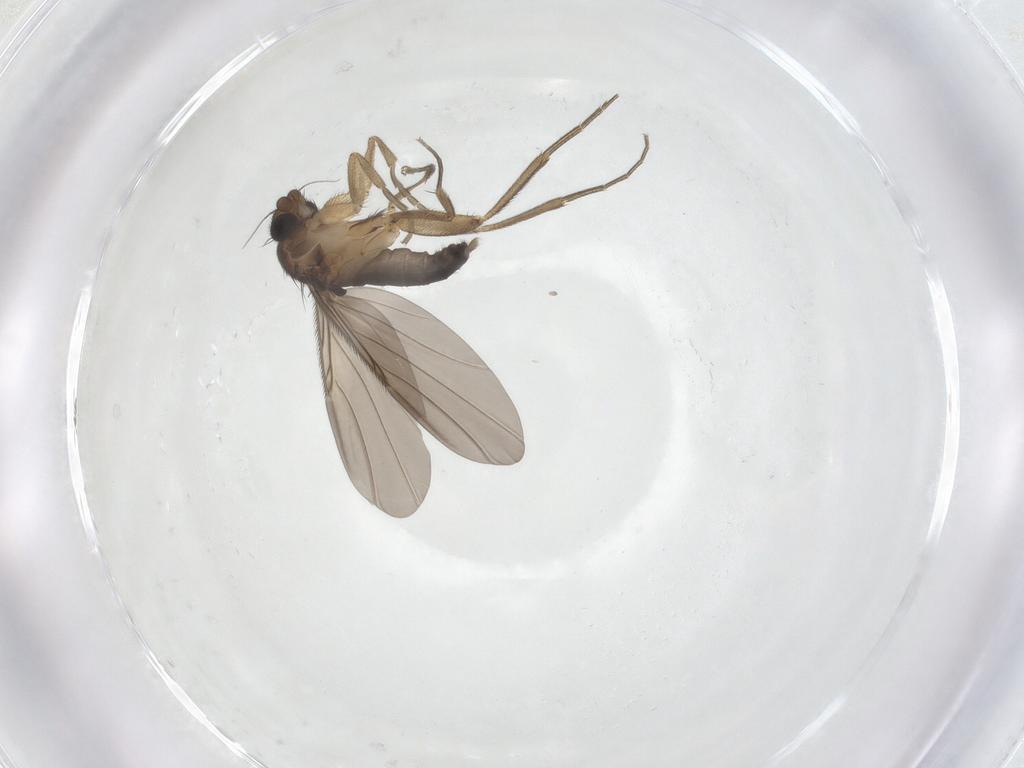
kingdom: Animalia
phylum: Arthropoda
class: Insecta
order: Diptera
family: Phoridae
